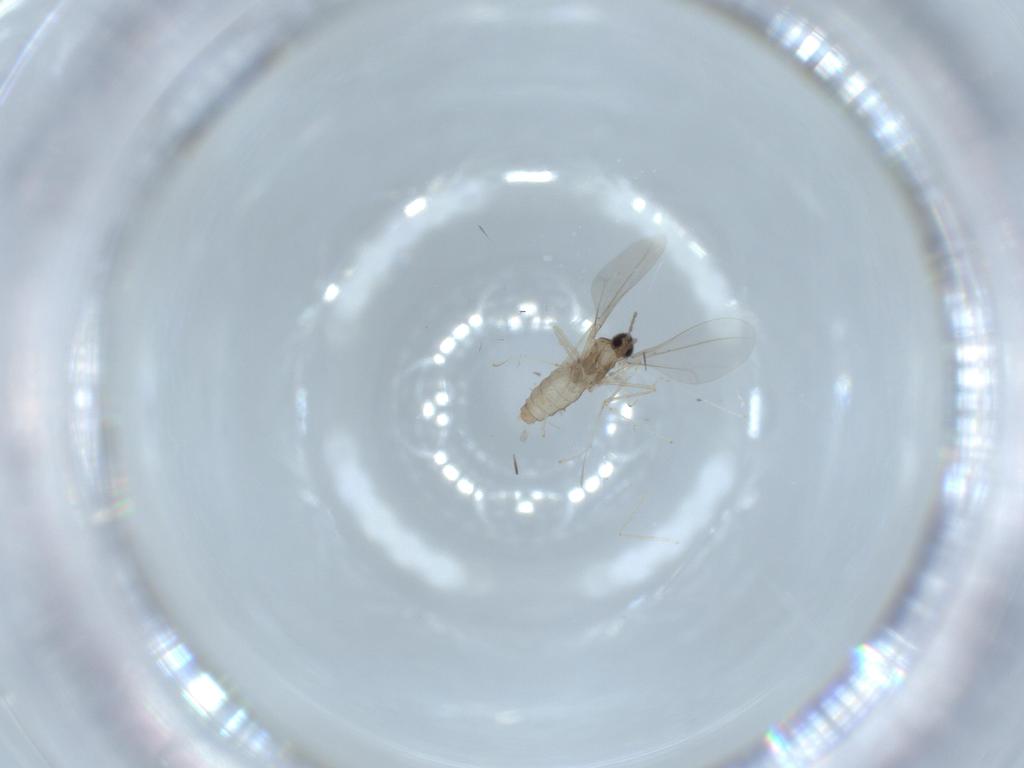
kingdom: Animalia
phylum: Arthropoda
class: Insecta
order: Diptera
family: Cecidomyiidae
